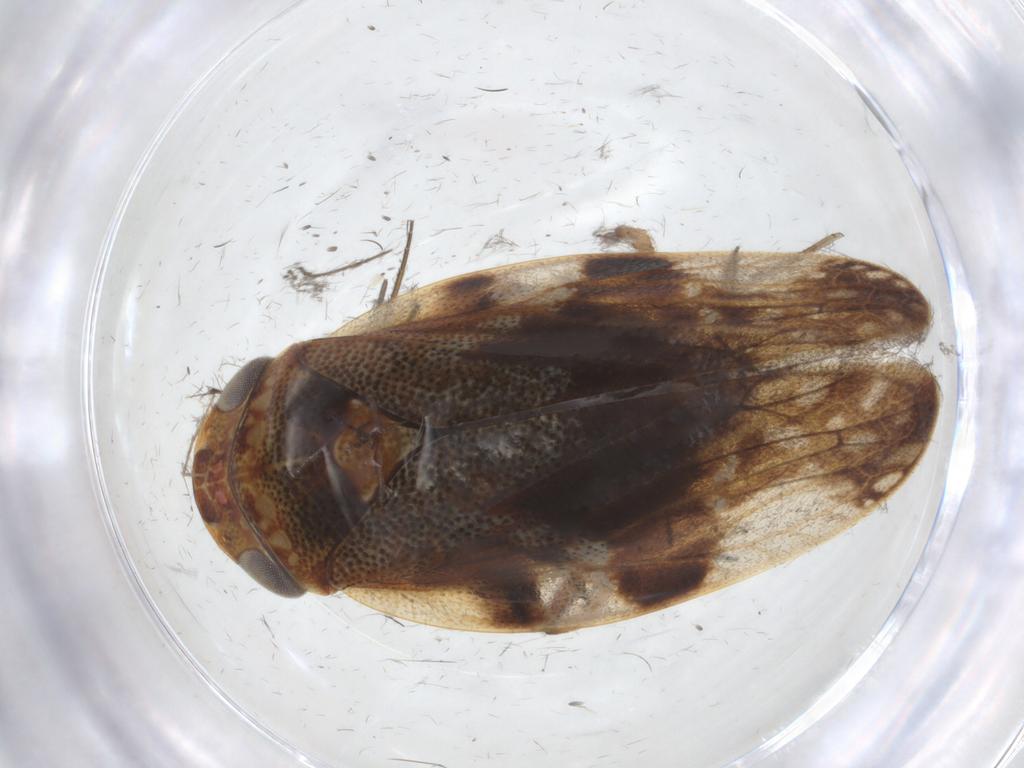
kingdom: Animalia
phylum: Arthropoda
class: Insecta
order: Hemiptera
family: Aphrophoridae
